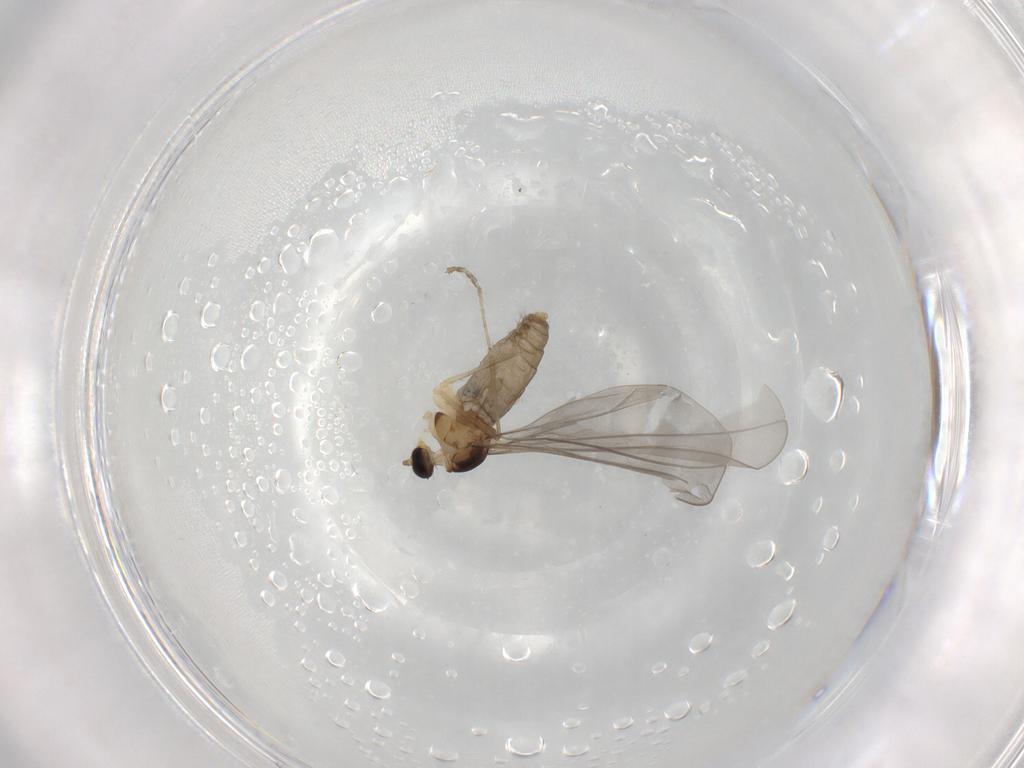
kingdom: Animalia
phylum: Arthropoda
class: Insecta
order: Diptera
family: Cecidomyiidae
